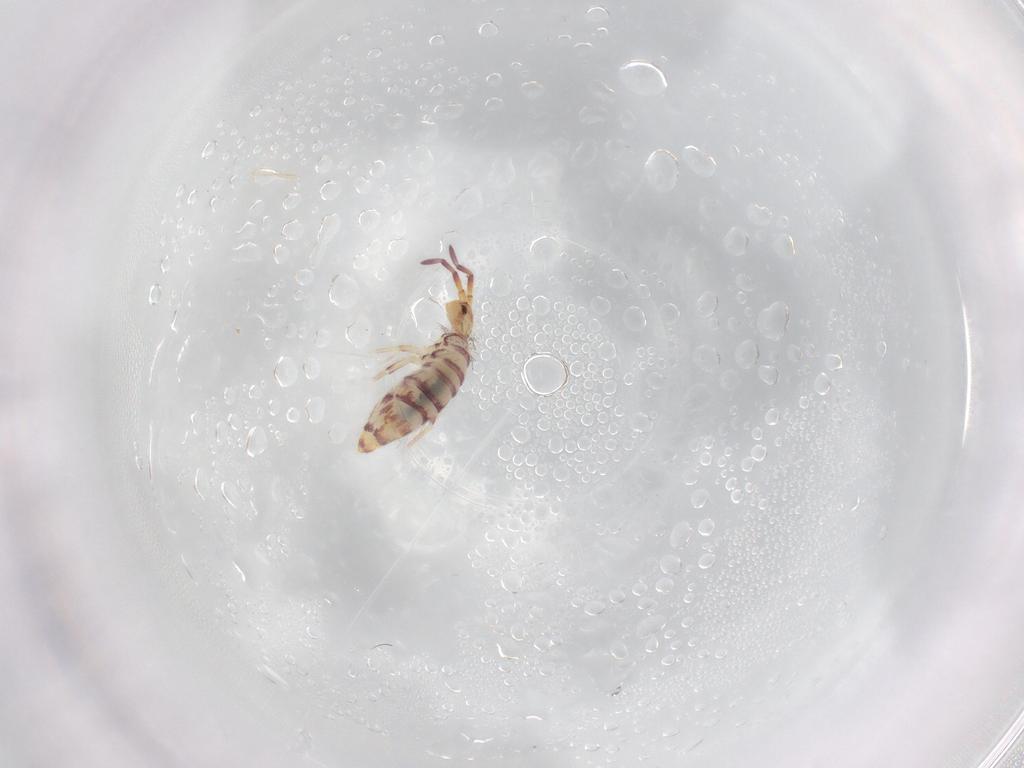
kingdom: Animalia
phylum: Arthropoda
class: Collembola
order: Entomobryomorpha
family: Entomobryidae
